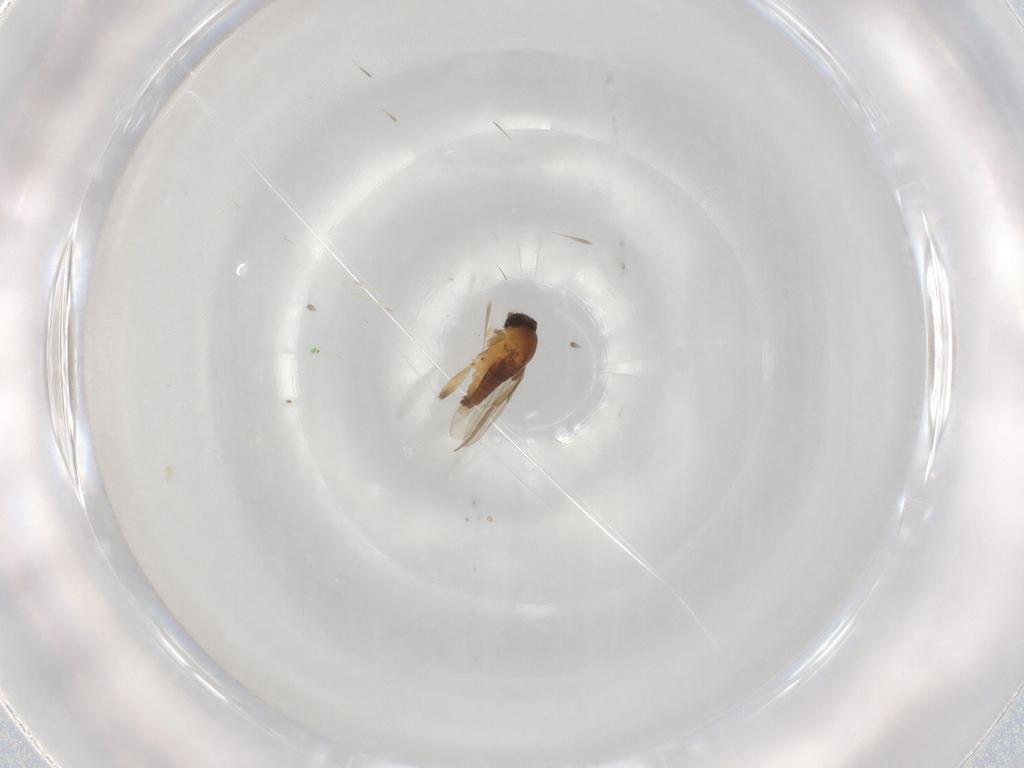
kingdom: Animalia
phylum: Arthropoda
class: Insecta
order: Diptera
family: Phoridae
